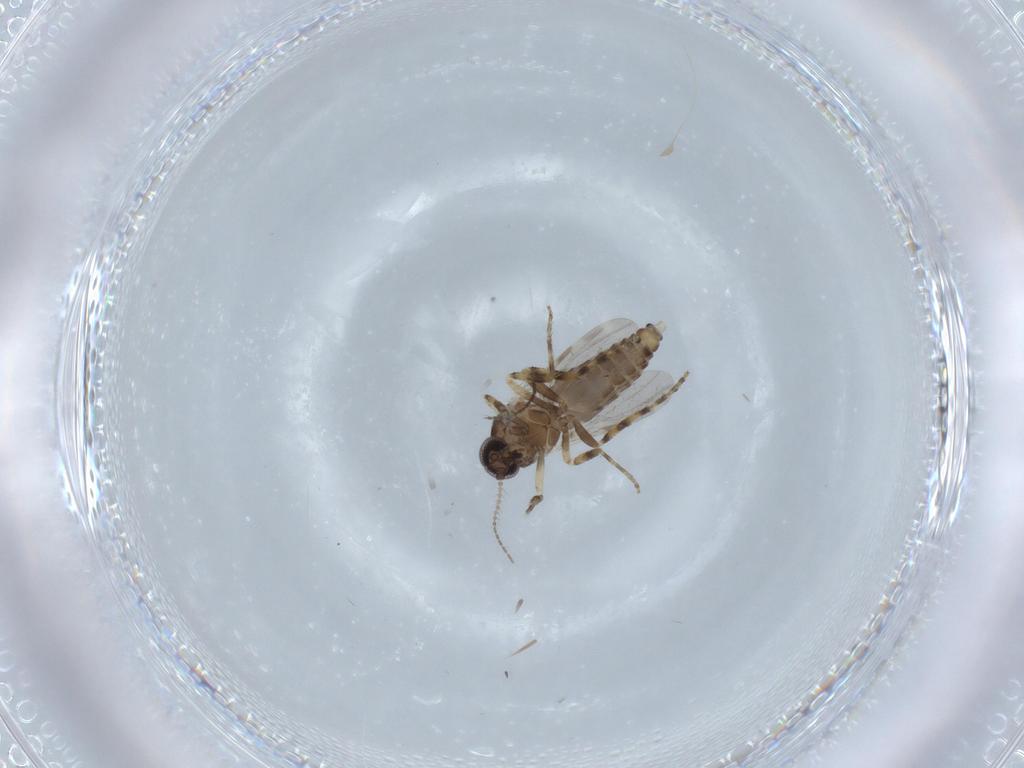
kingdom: Animalia
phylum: Arthropoda
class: Insecta
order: Diptera
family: Ceratopogonidae
